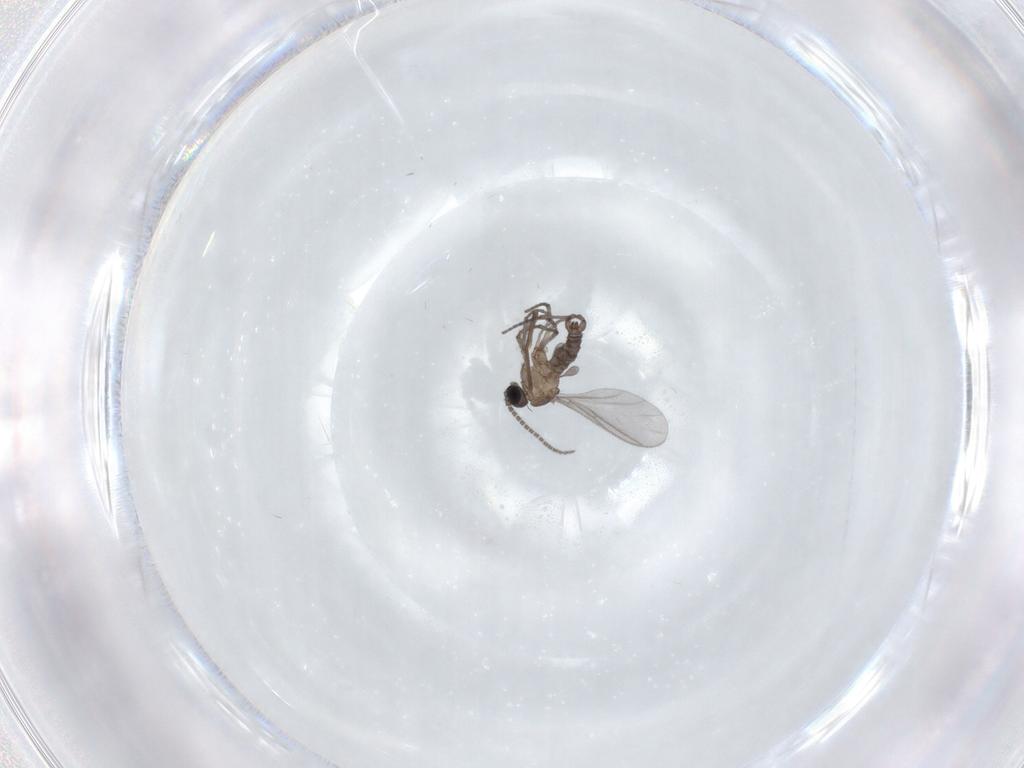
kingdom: Animalia
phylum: Arthropoda
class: Insecta
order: Diptera
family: Sciaridae
